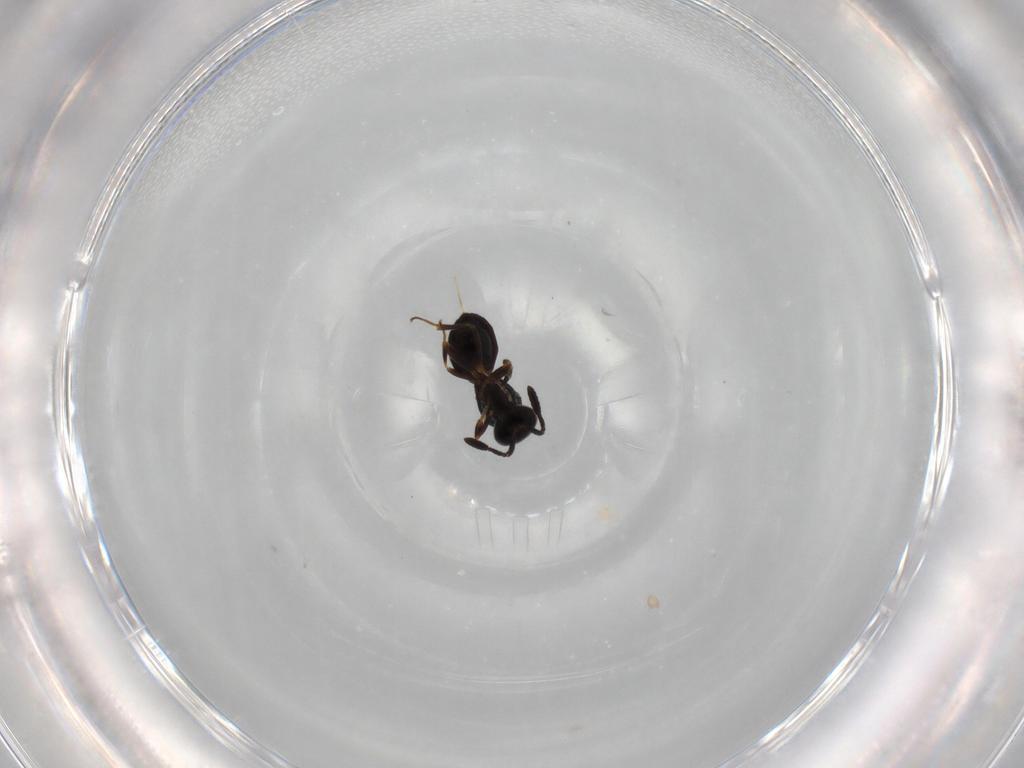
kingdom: Animalia
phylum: Arthropoda
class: Insecta
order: Hymenoptera
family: Scelionidae
